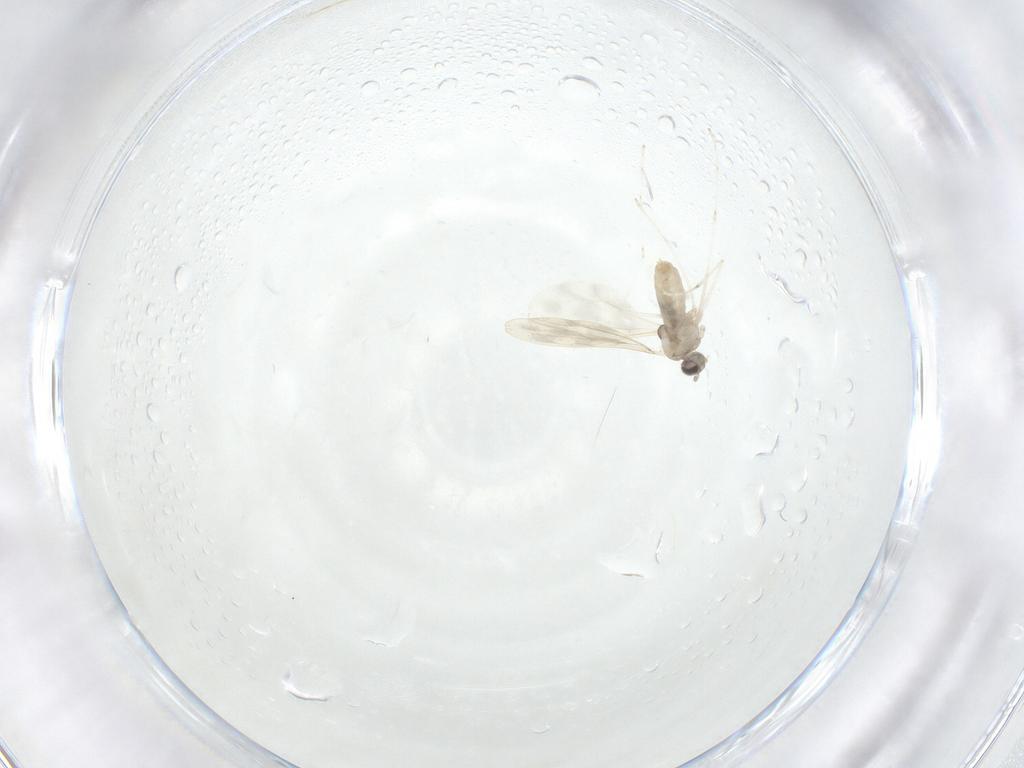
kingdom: Animalia
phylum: Arthropoda
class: Insecta
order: Diptera
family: Cecidomyiidae
